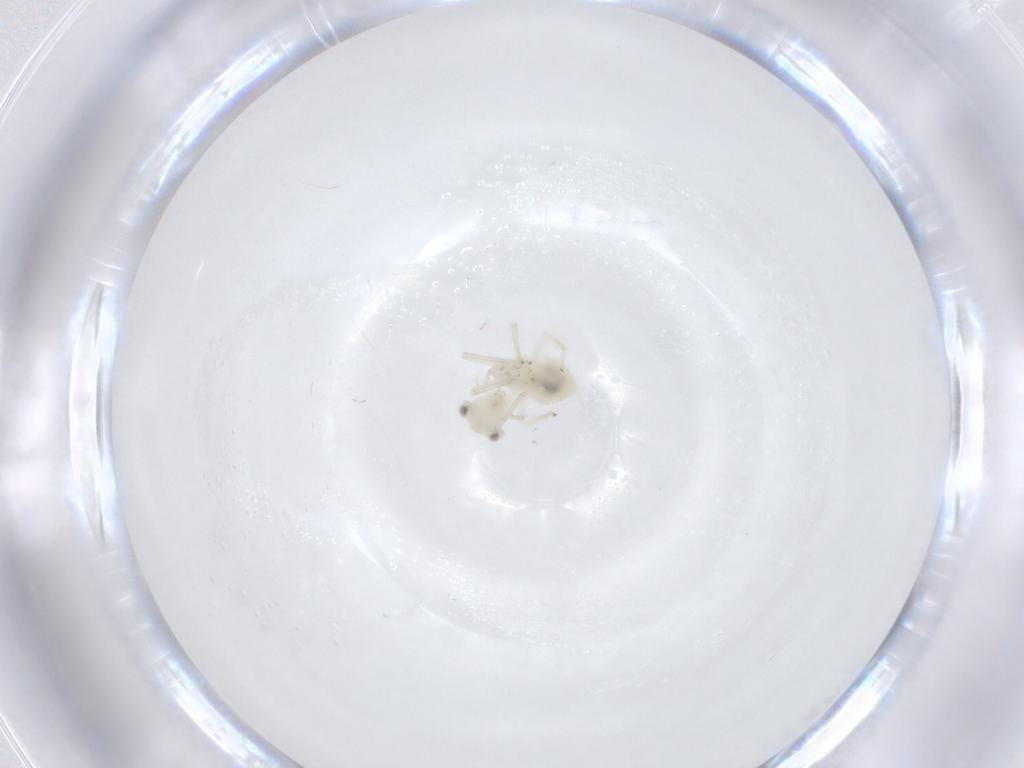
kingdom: Animalia
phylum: Arthropoda
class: Insecta
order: Psocodea
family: Caeciliusidae
